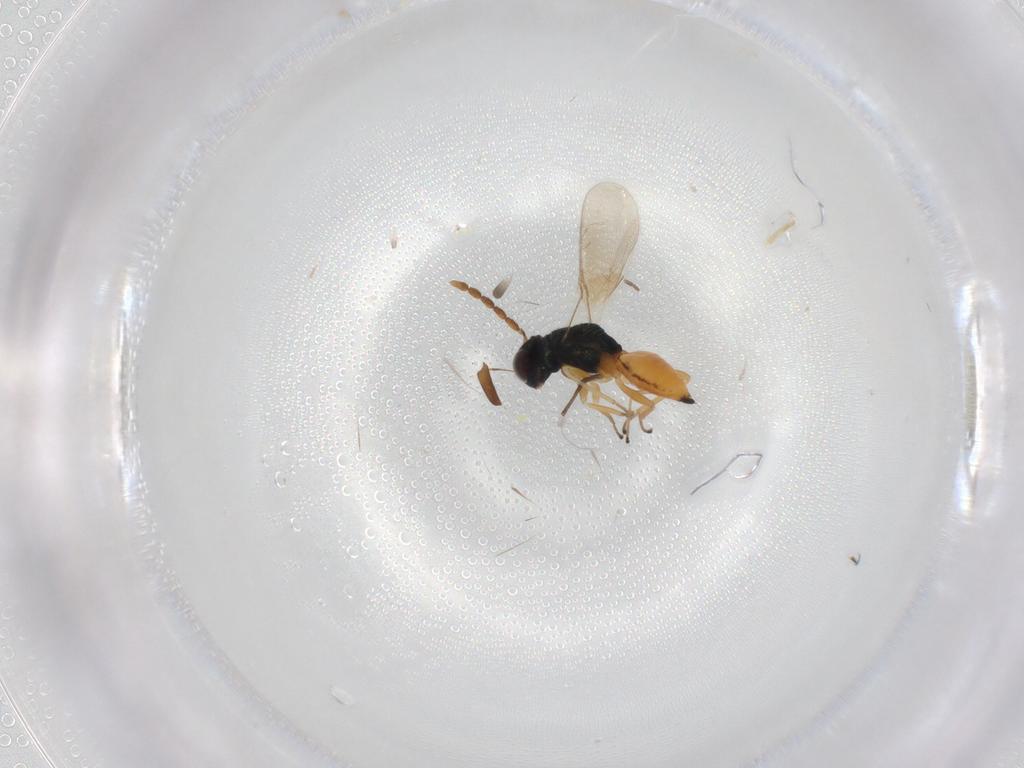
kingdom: Animalia
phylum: Arthropoda
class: Insecta
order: Hymenoptera
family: Eulophidae
